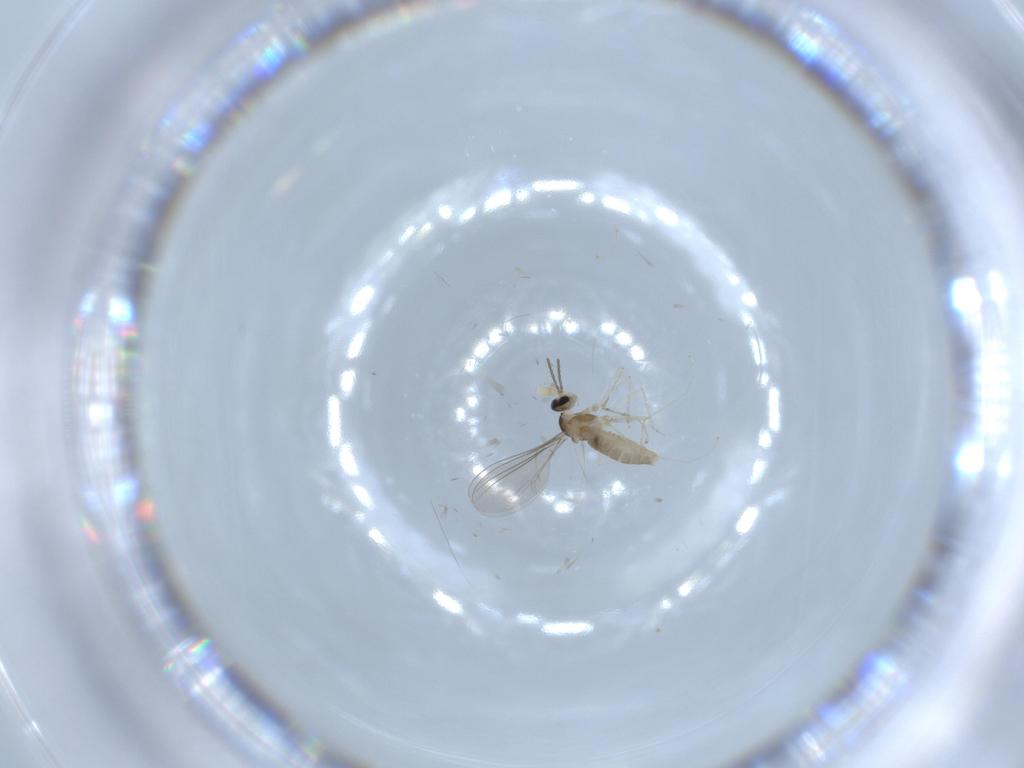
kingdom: Animalia
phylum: Arthropoda
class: Insecta
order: Diptera
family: Cecidomyiidae
